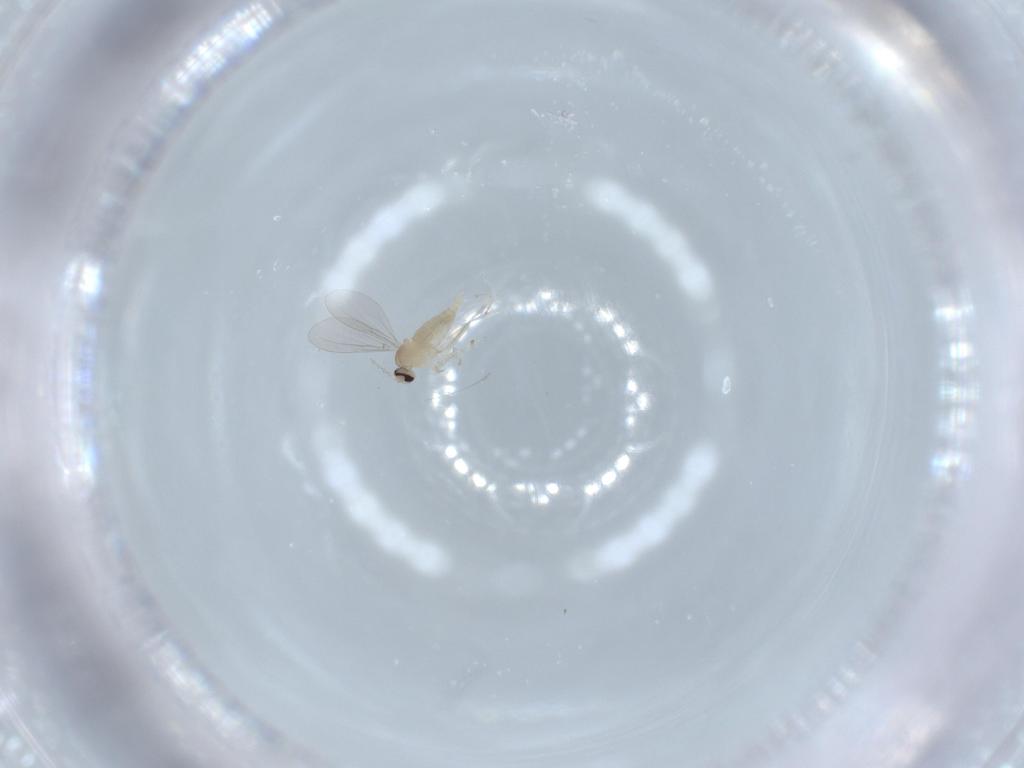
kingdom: Animalia
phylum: Arthropoda
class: Insecta
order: Diptera
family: Cecidomyiidae
